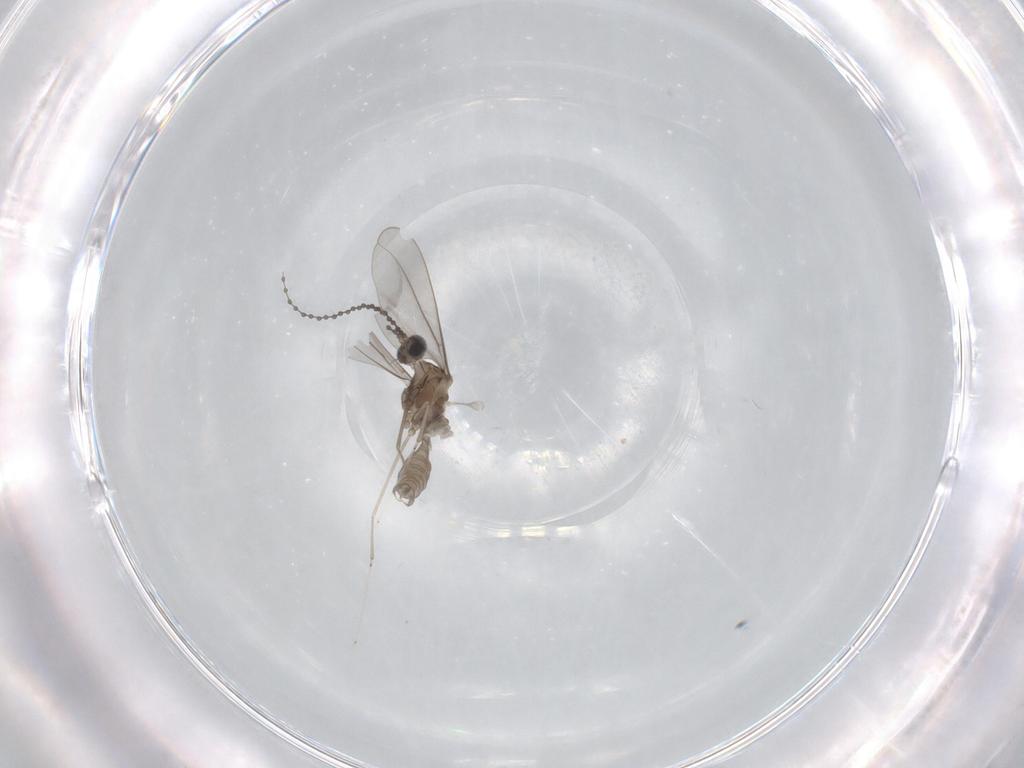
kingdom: Animalia
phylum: Arthropoda
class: Insecta
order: Diptera
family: Cecidomyiidae
